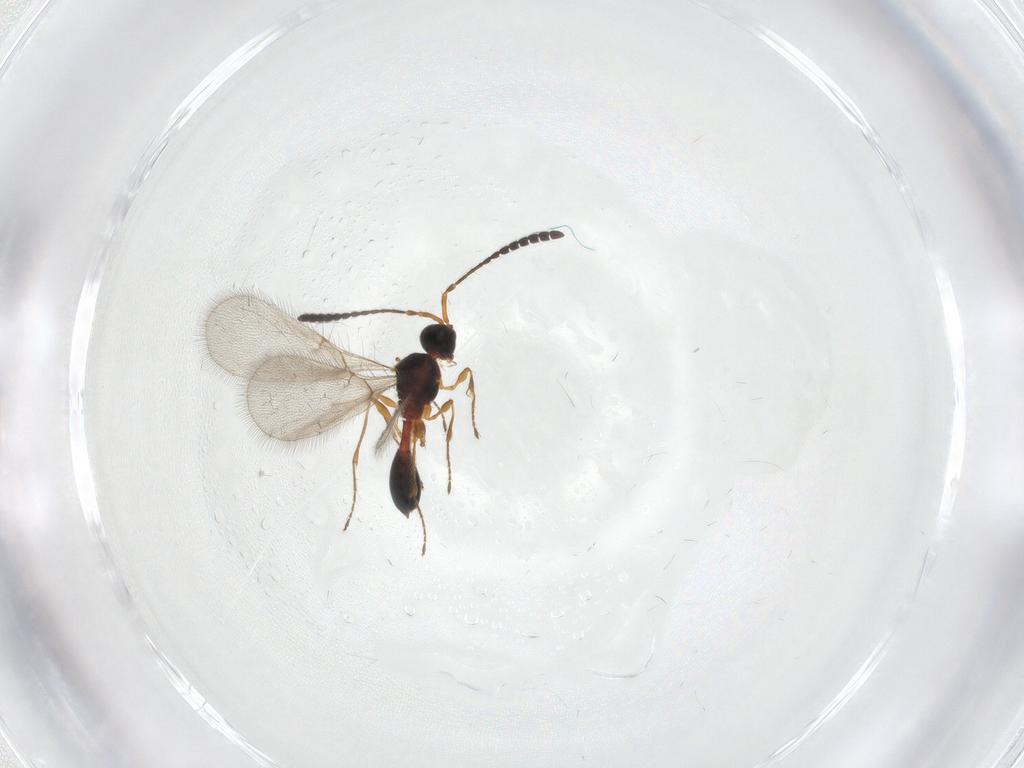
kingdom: Animalia
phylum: Arthropoda
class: Insecta
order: Hymenoptera
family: Diapriidae
